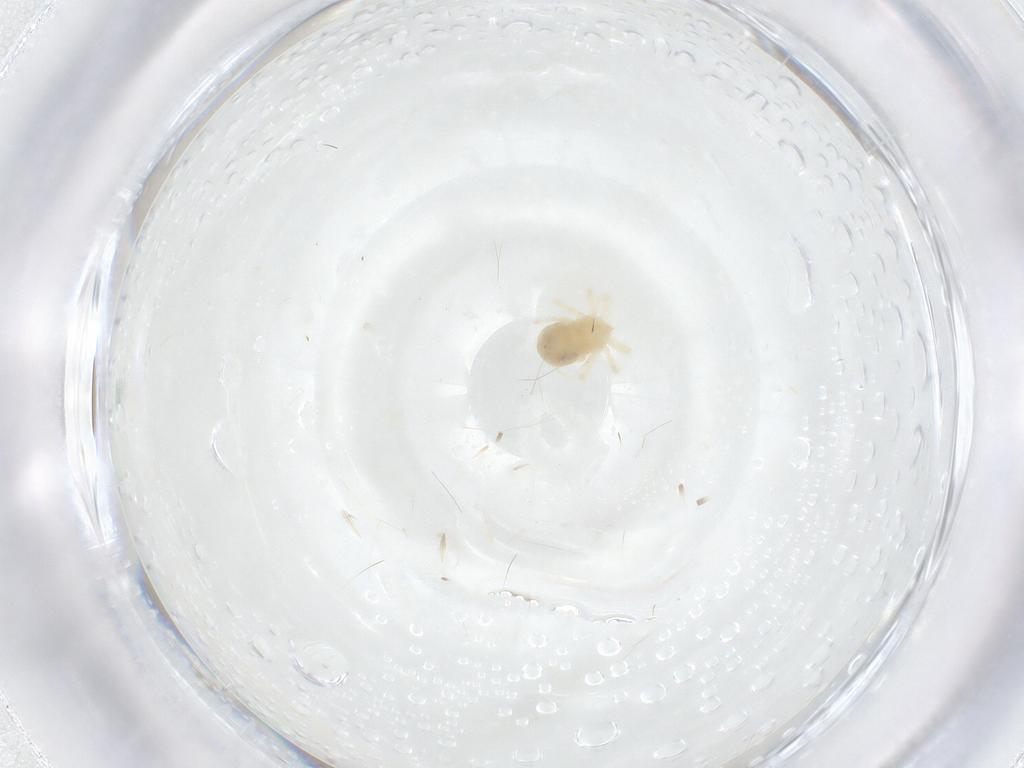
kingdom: Animalia
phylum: Arthropoda
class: Arachnida
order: Trombidiformes
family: Anystidae
